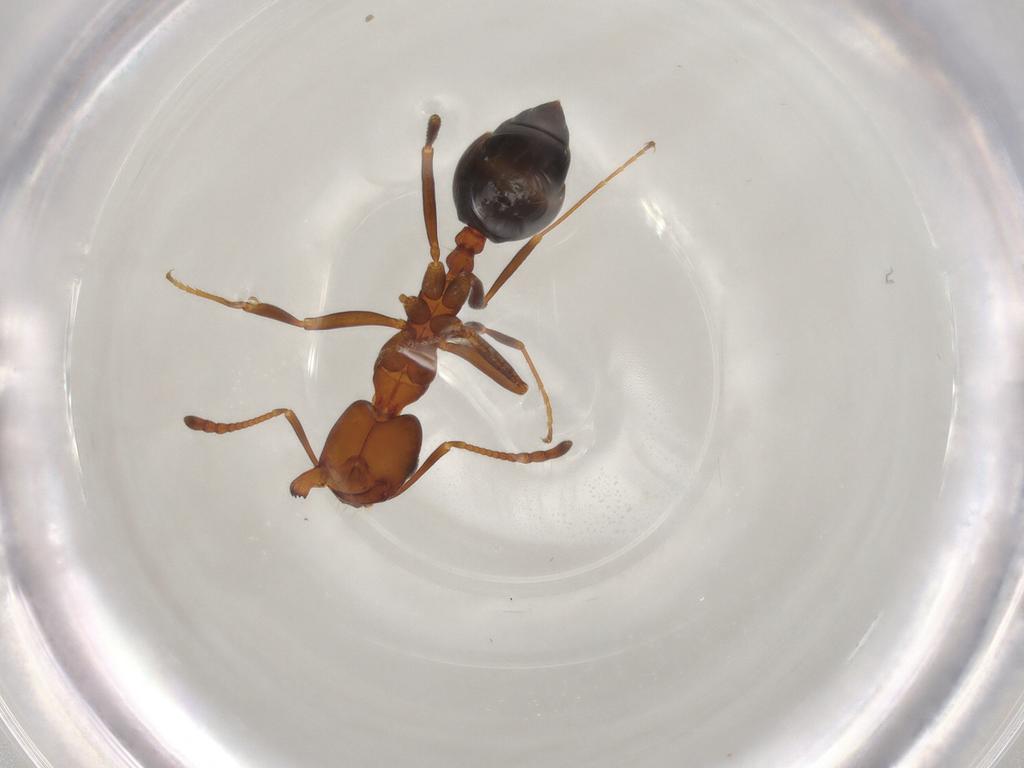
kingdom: Animalia
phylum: Arthropoda
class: Insecta
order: Hymenoptera
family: Formicidae
